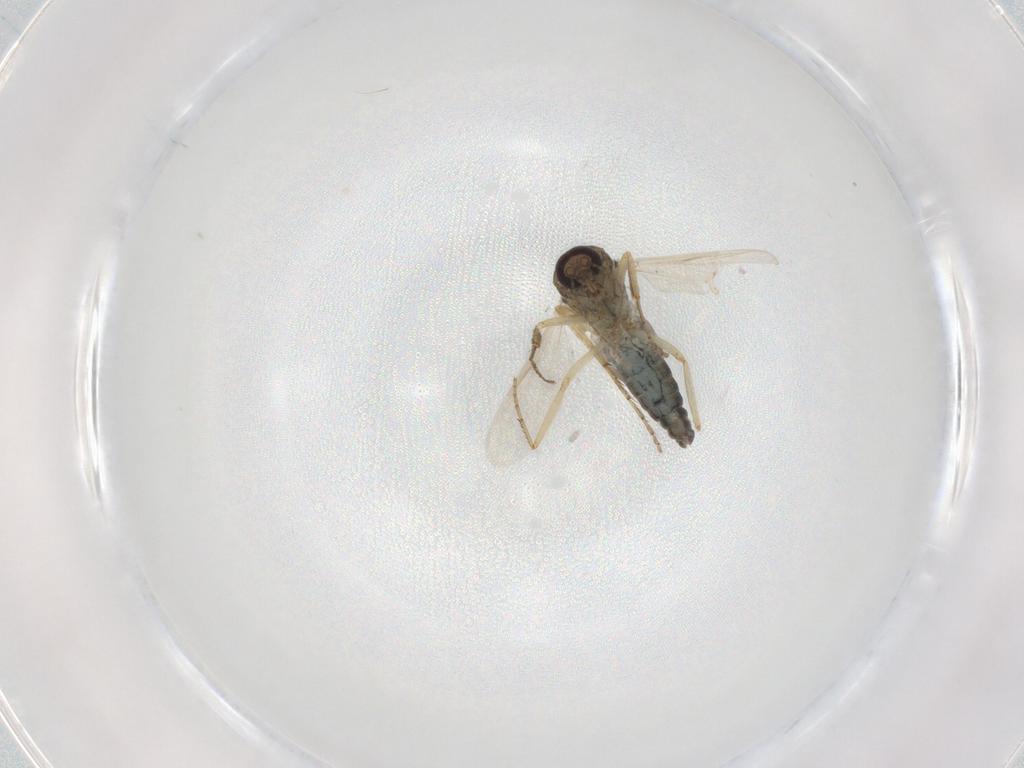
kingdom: Animalia
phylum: Arthropoda
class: Insecta
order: Diptera
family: Ceratopogonidae
